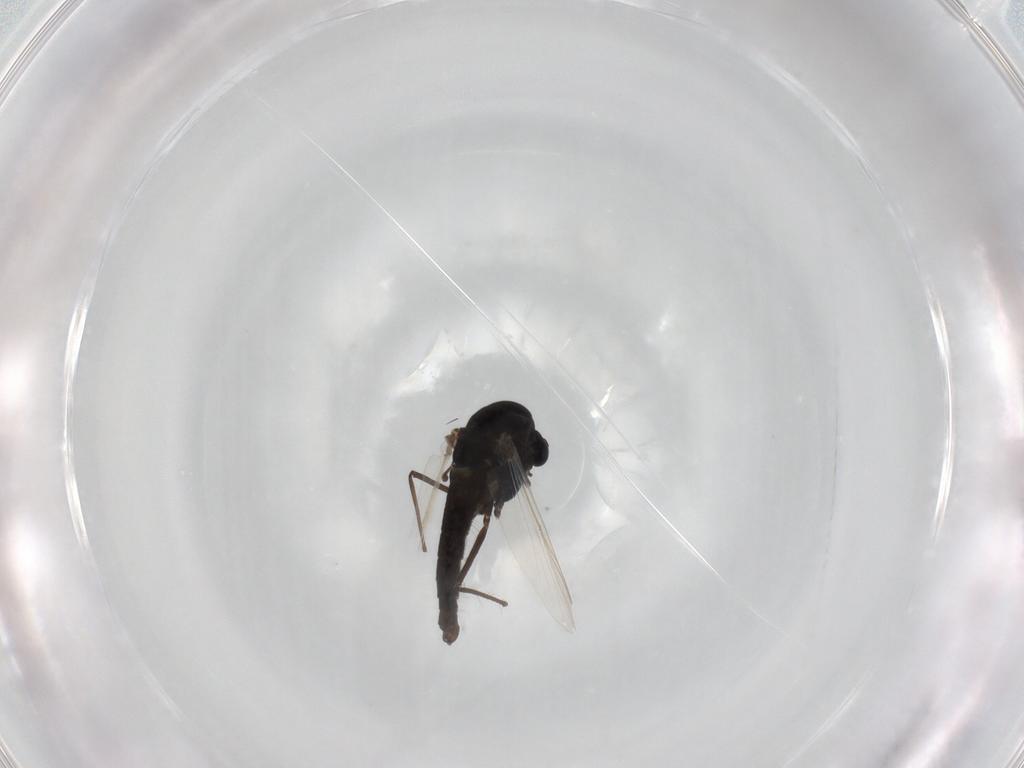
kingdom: Animalia
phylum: Arthropoda
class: Insecta
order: Diptera
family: Chironomidae
